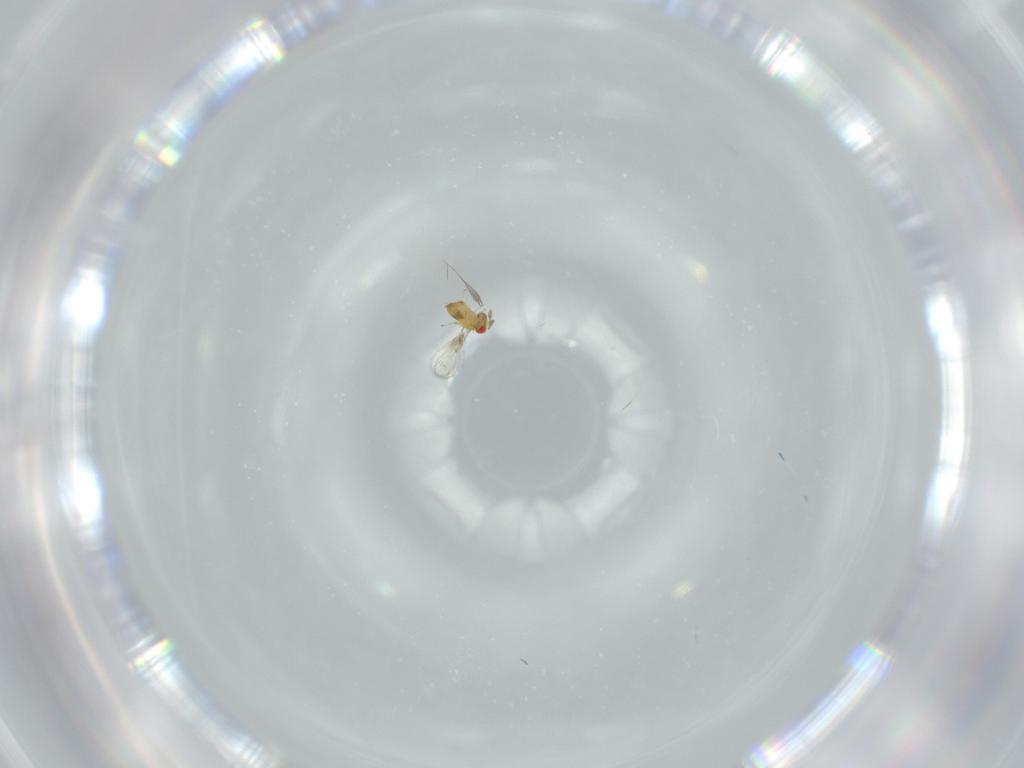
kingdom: Animalia
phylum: Arthropoda
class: Insecta
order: Hymenoptera
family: Trichogrammatidae
